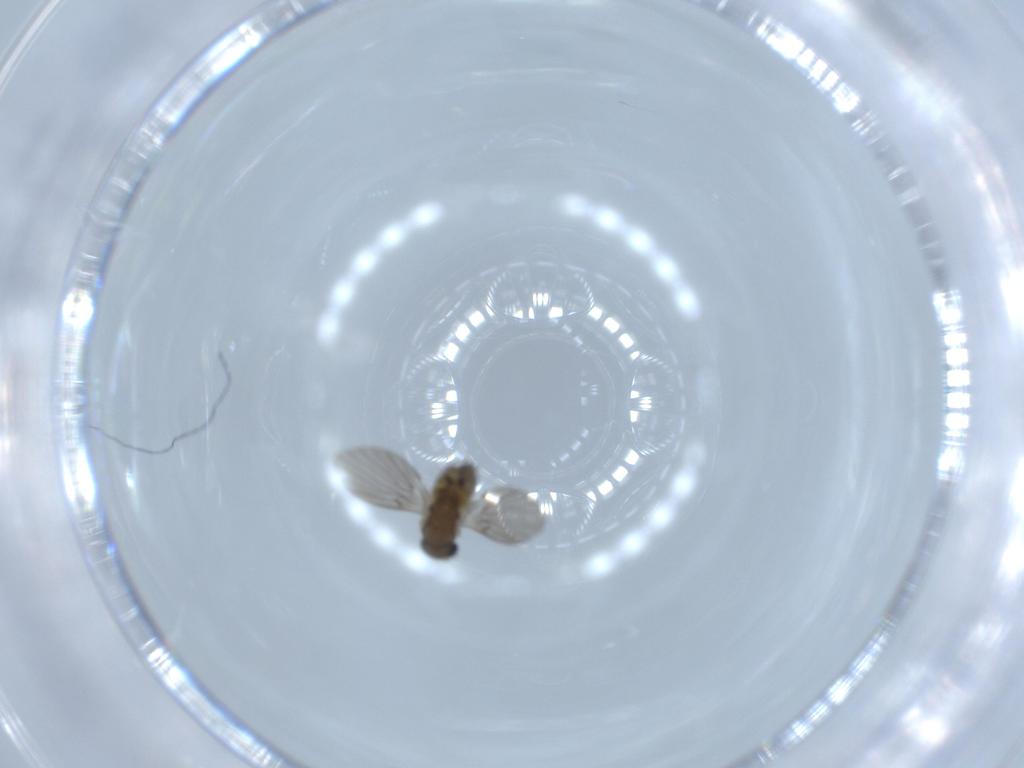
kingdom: Animalia
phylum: Arthropoda
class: Insecta
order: Diptera
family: Psychodidae
